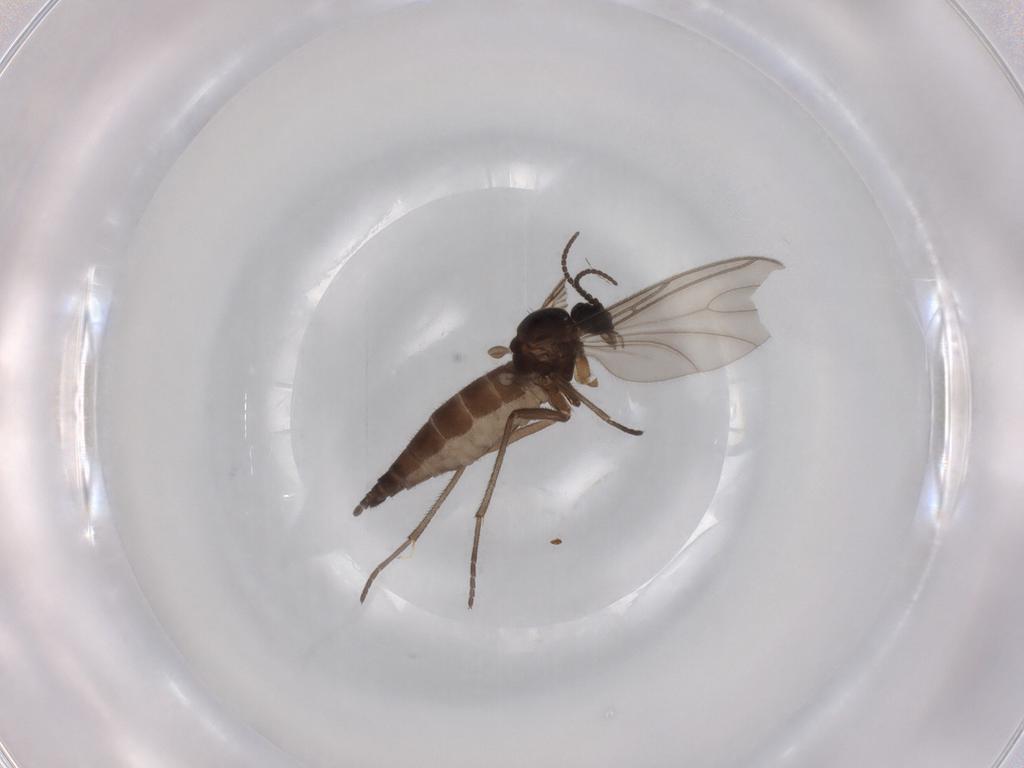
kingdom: Animalia
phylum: Arthropoda
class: Insecta
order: Diptera
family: Sciaridae
